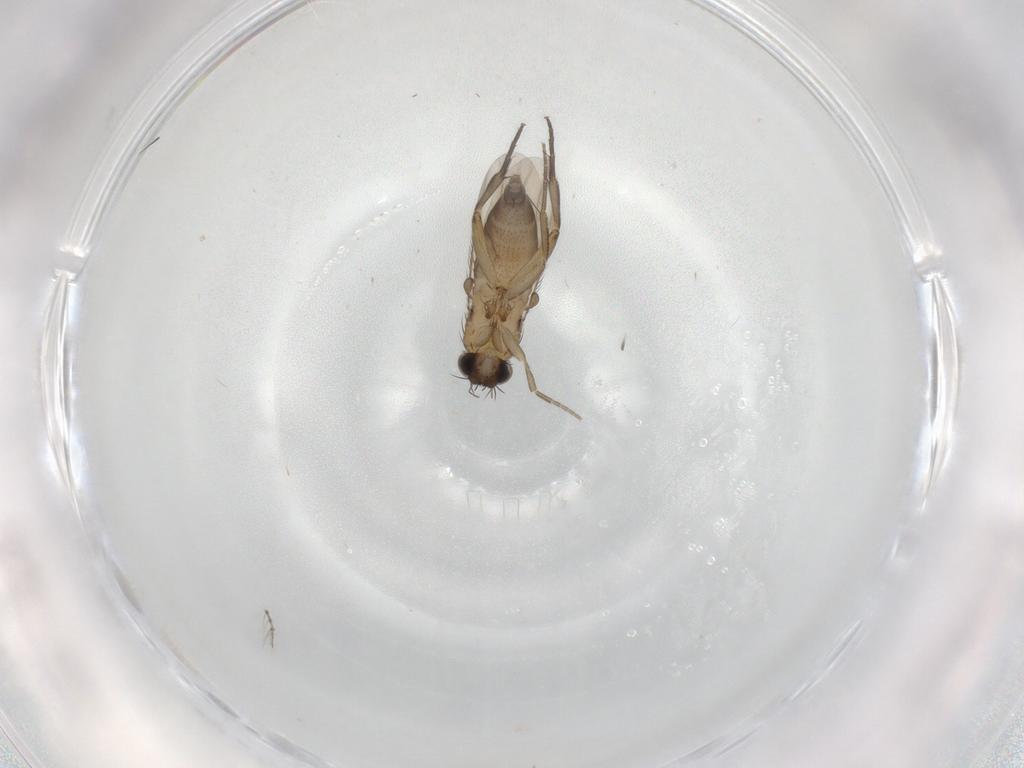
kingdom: Animalia
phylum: Arthropoda
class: Insecta
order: Diptera
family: Phoridae
